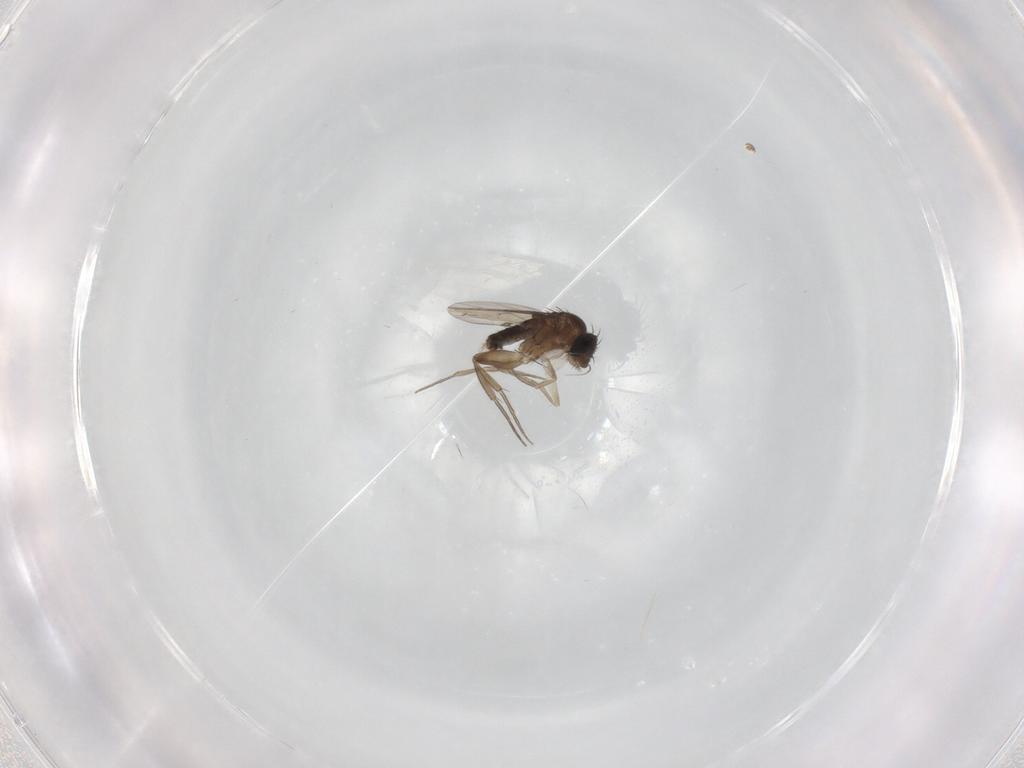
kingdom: Animalia
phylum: Arthropoda
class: Insecta
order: Diptera
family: Phoridae
